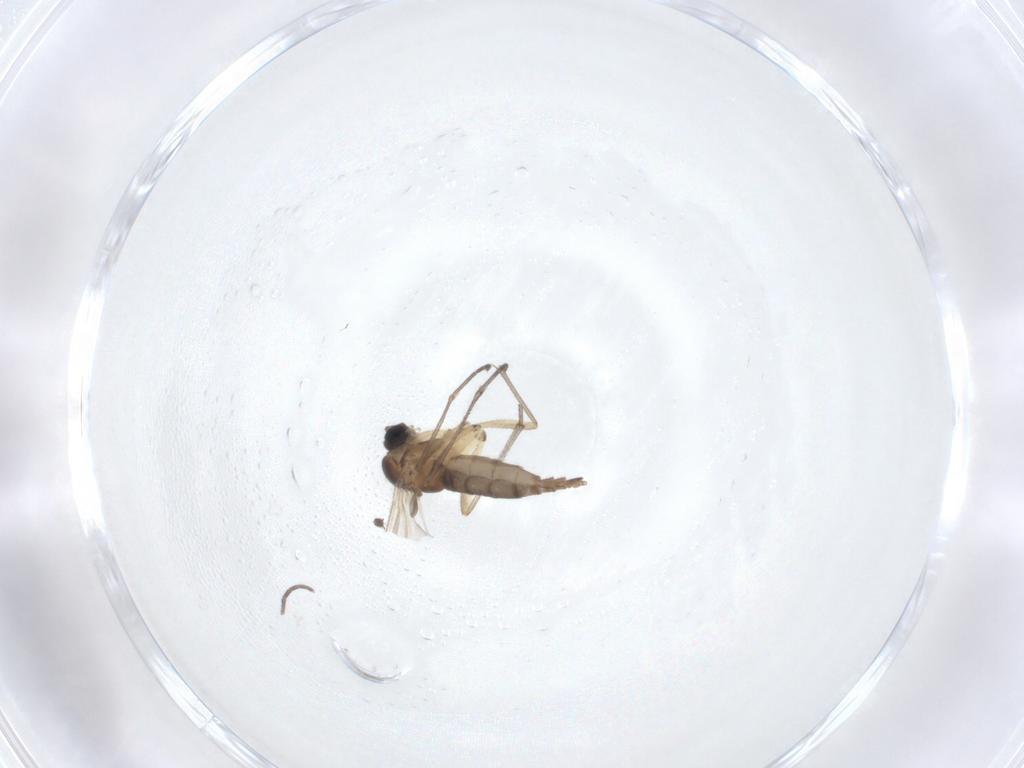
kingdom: Animalia
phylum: Arthropoda
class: Insecta
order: Diptera
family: Sciaridae
